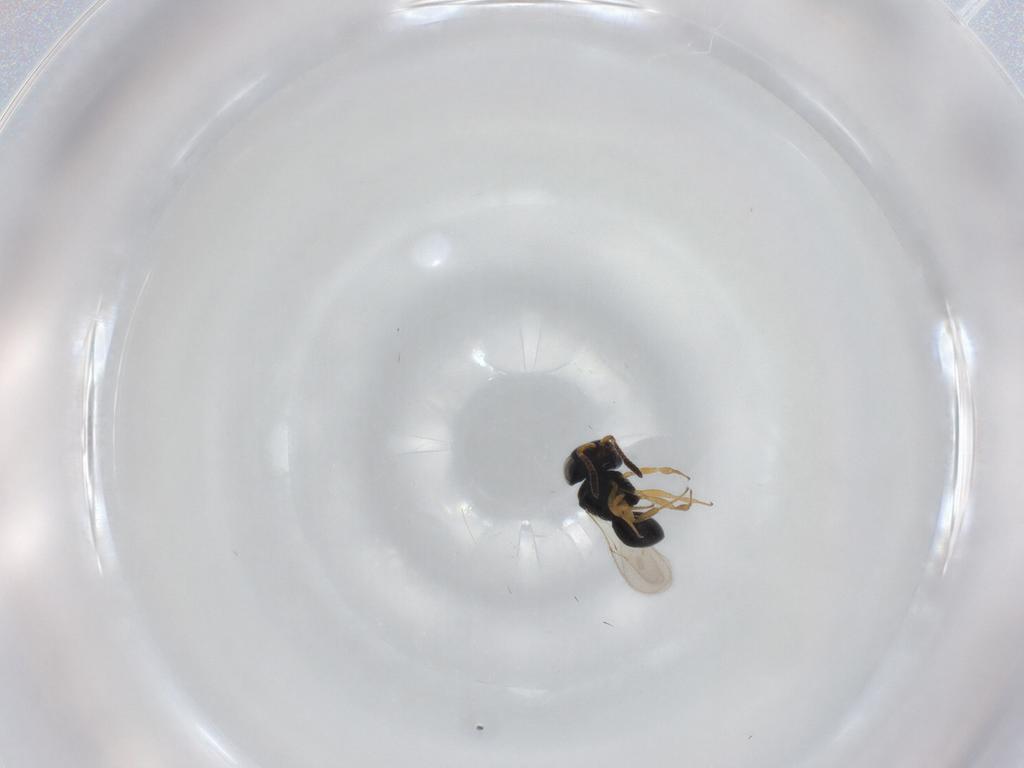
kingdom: Animalia
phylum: Arthropoda
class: Insecta
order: Hymenoptera
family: Scelionidae
